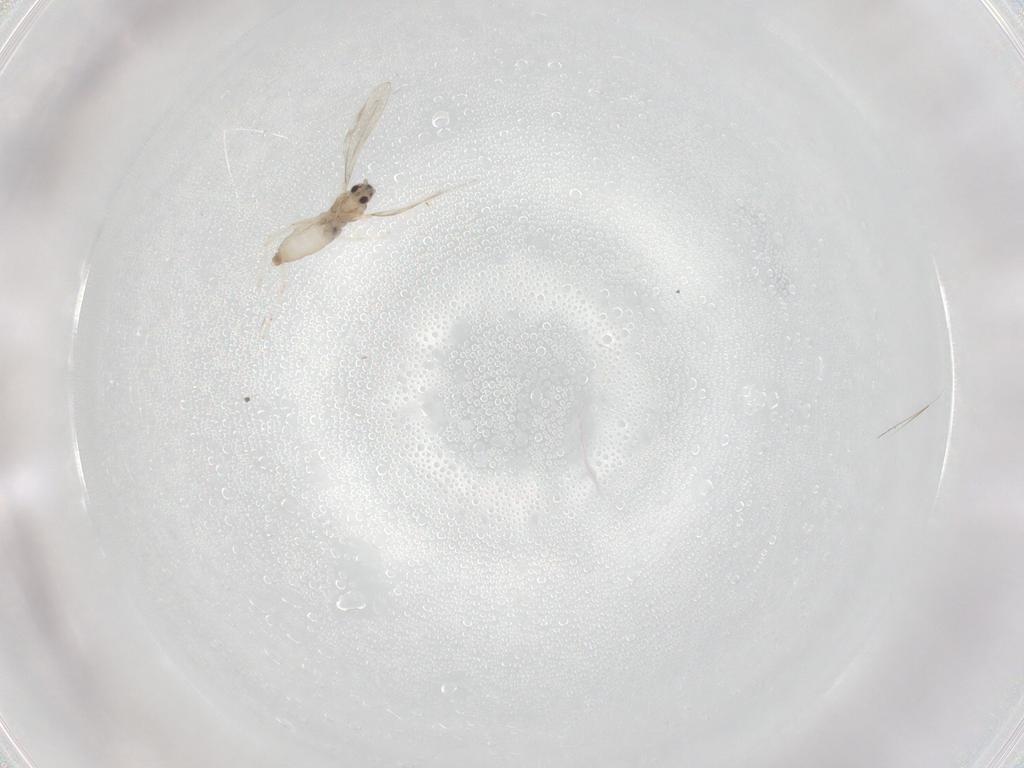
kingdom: Animalia
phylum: Arthropoda
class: Insecta
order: Diptera
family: Cecidomyiidae
